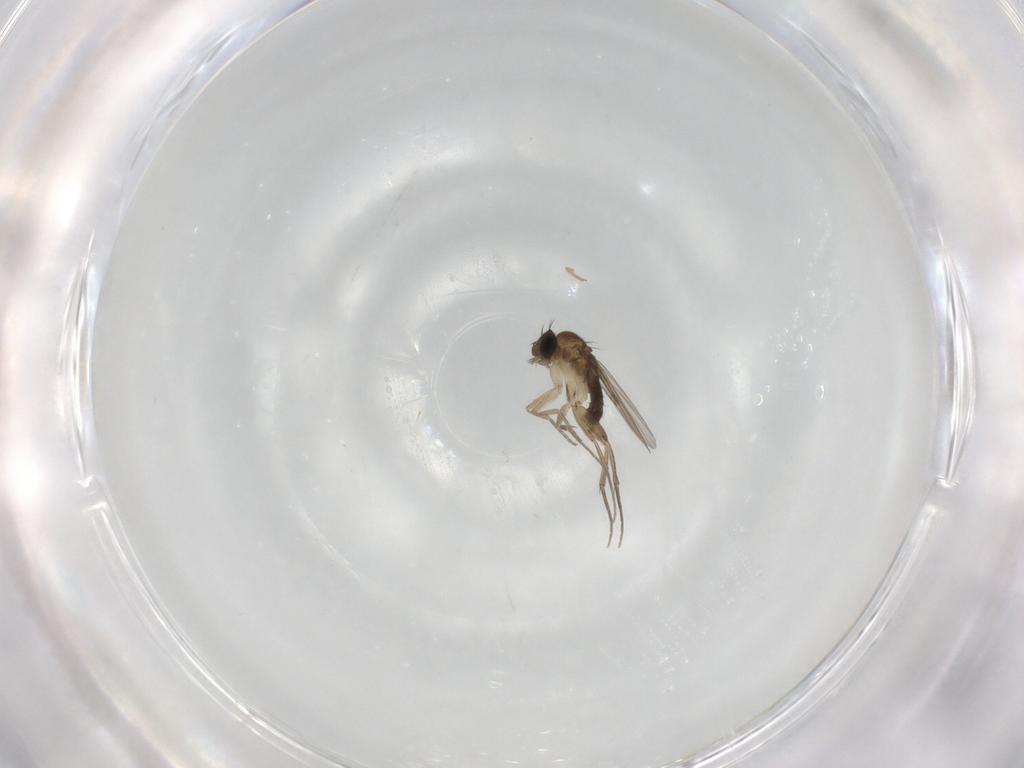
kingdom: Animalia
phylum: Arthropoda
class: Insecta
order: Diptera
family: Phoridae
